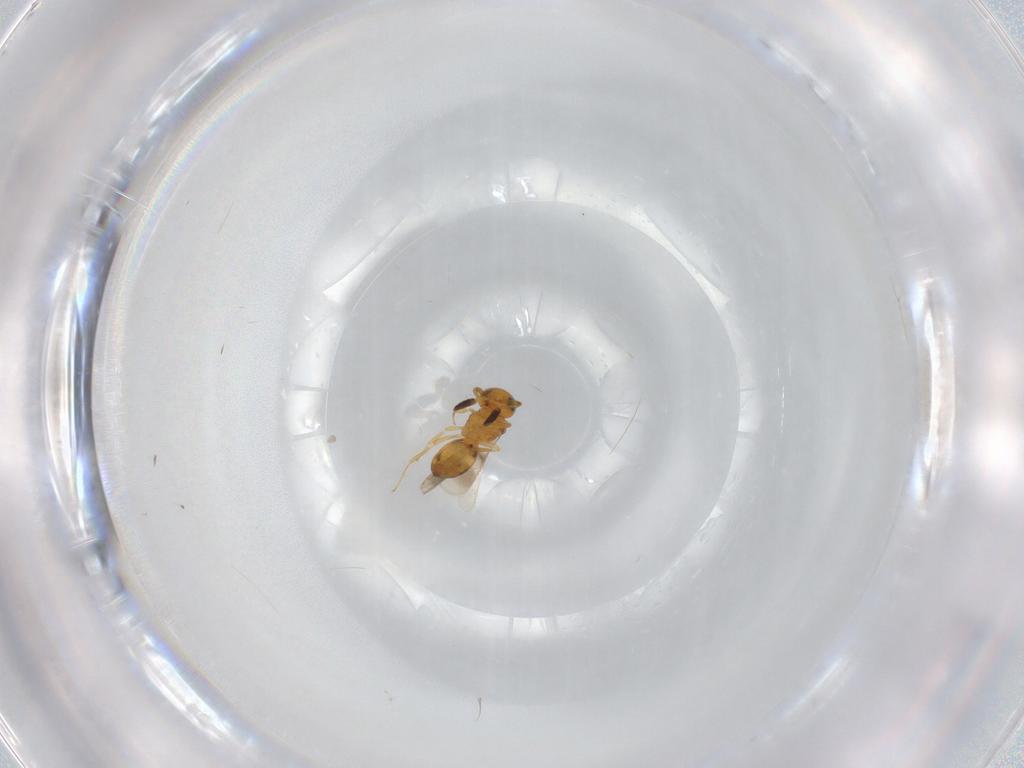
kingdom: Animalia
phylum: Arthropoda
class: Insecta
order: Hymenoptera
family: Scelionidae
